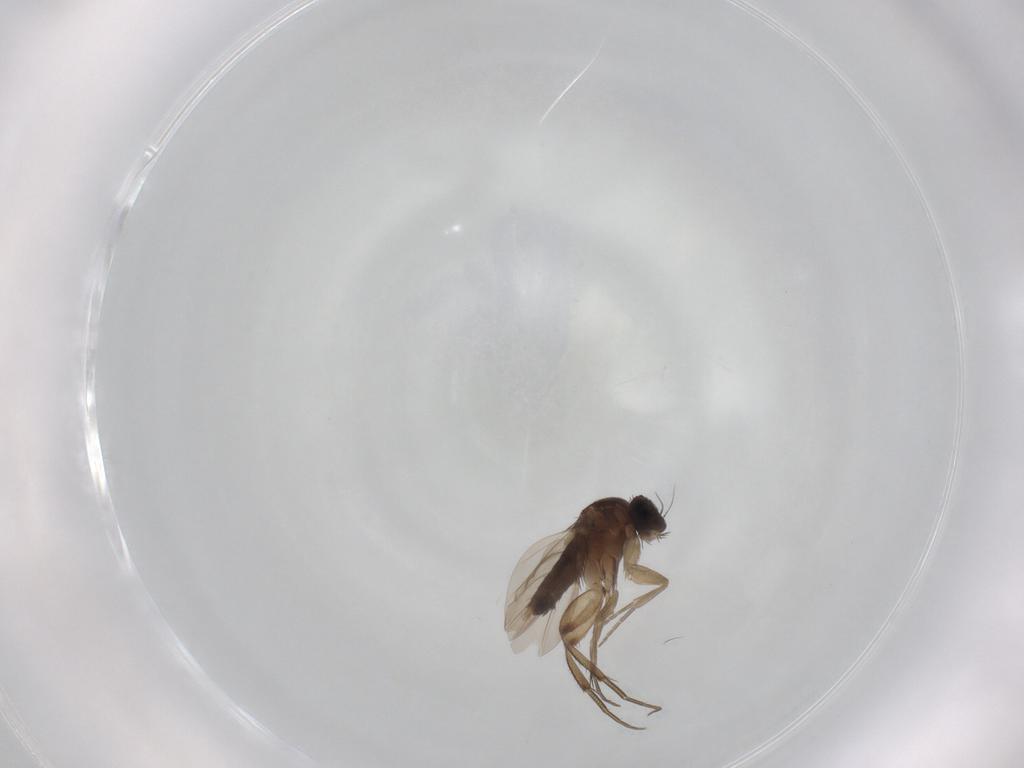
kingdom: Animalia
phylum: Arthropoda
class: Insecta
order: Diptera
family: Phoridae
